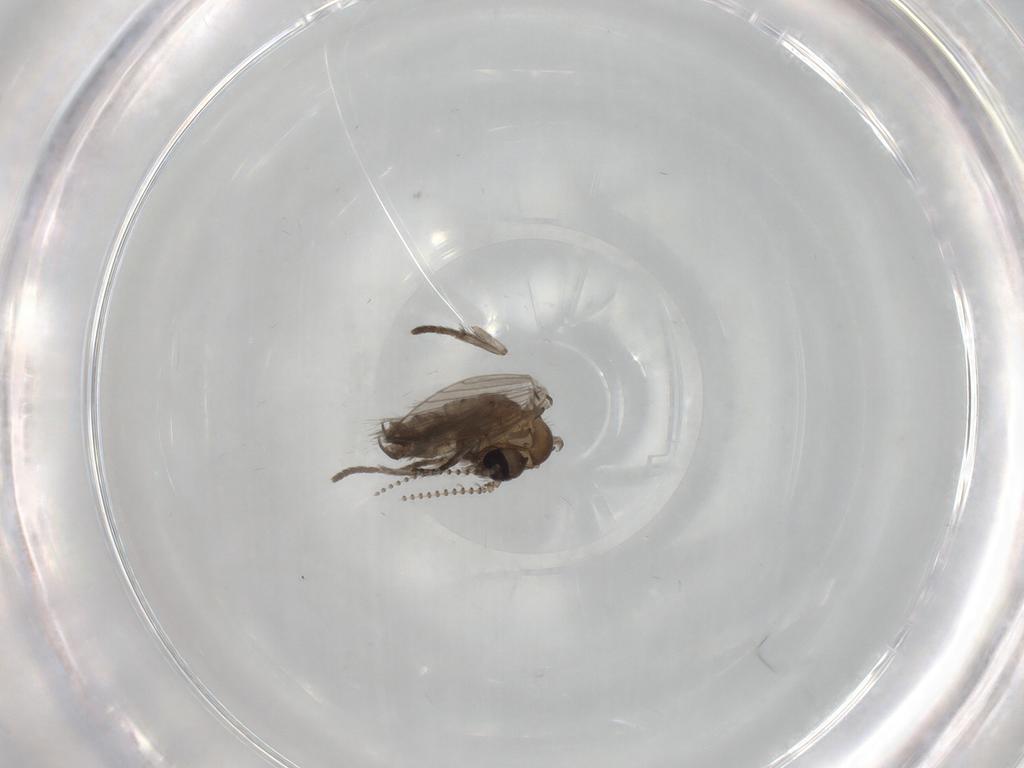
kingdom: Animalia
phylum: Arthropoda
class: Insecta
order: Diptera
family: Psychodidae
